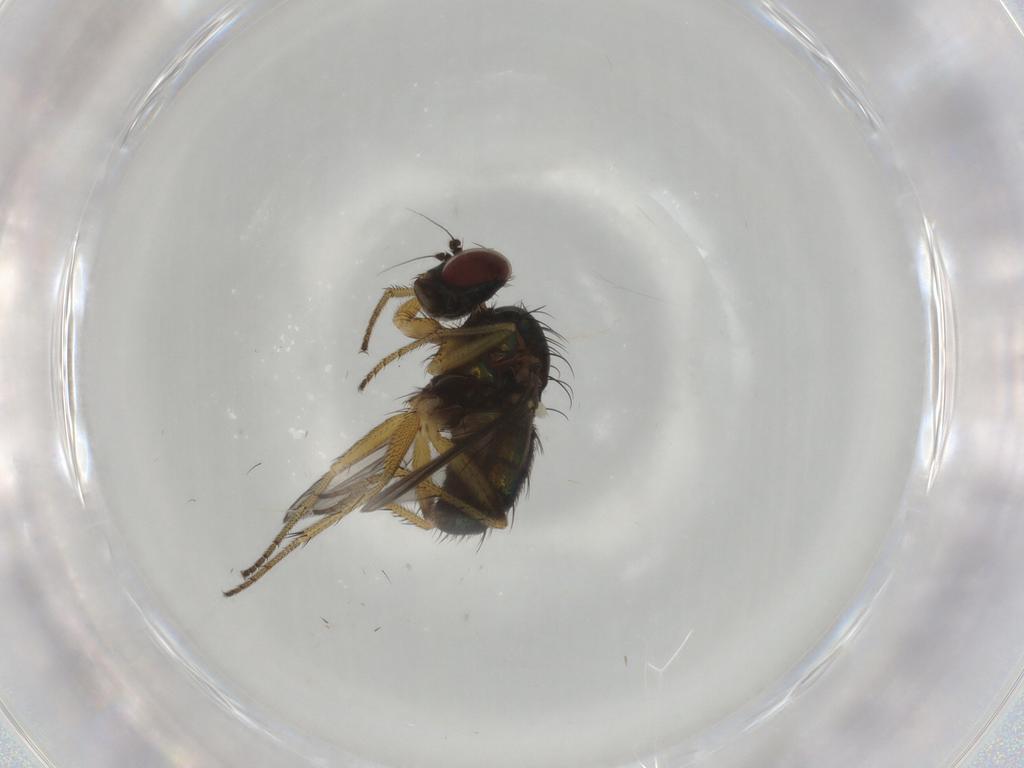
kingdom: Animalia
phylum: Arthropoda
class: Insecta
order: Diptera
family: Dolichopodidae
